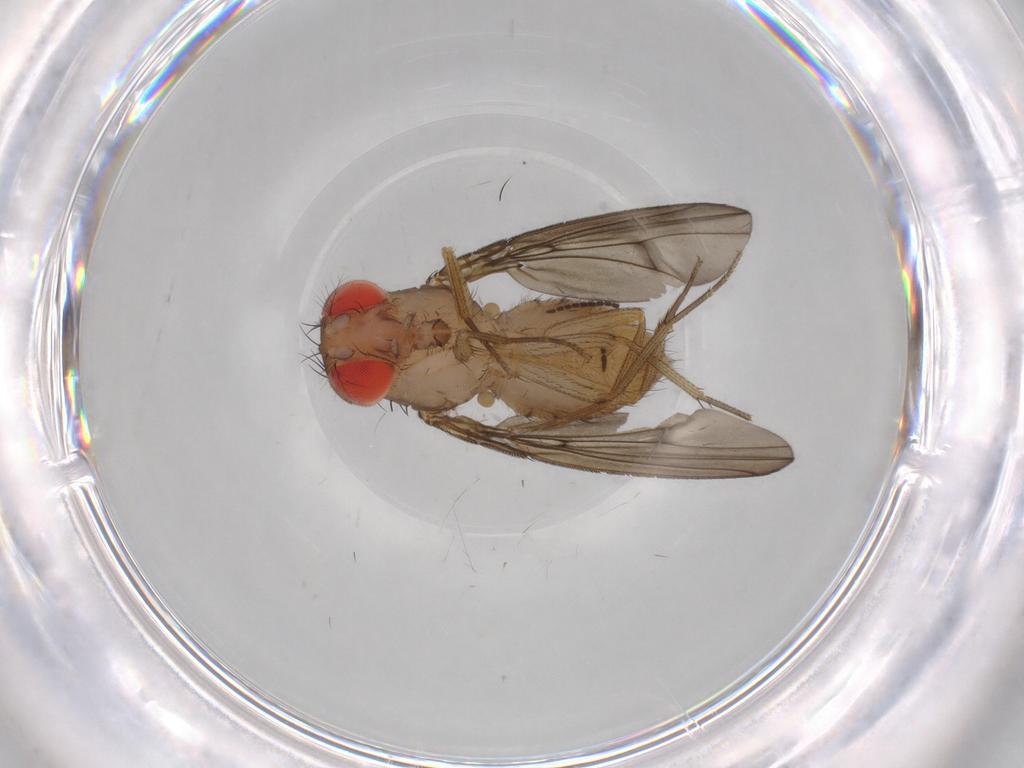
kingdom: Animalia
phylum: Arthropoda
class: Insecta
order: Diptera
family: Drosophilidae
